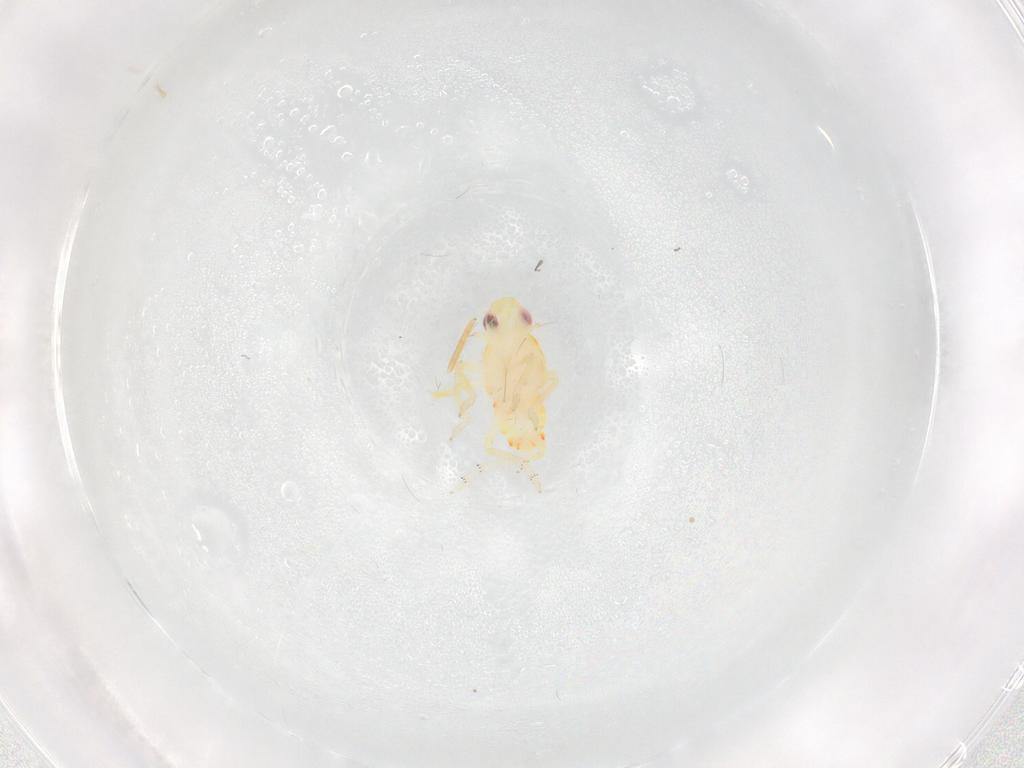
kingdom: Animalia
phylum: Arthropoda
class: Insecta
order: Hemiptera
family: Tropiduchidae
